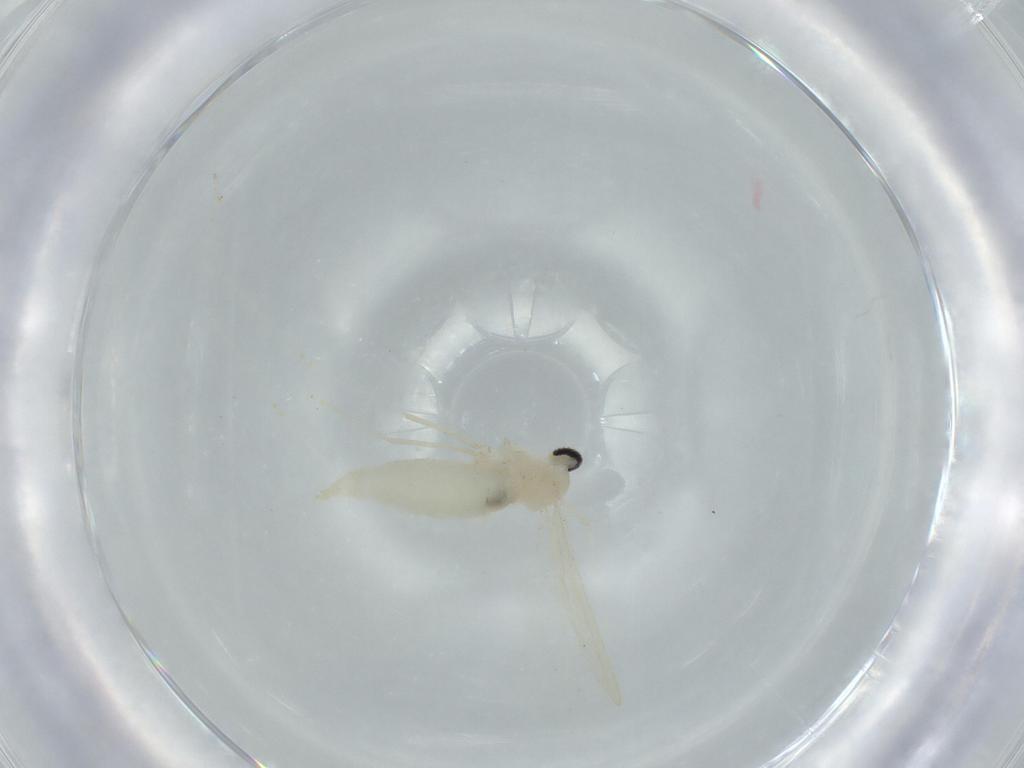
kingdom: Animalia
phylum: Arthropoda
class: Insecta
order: Diptera
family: Cecidomyiidae
